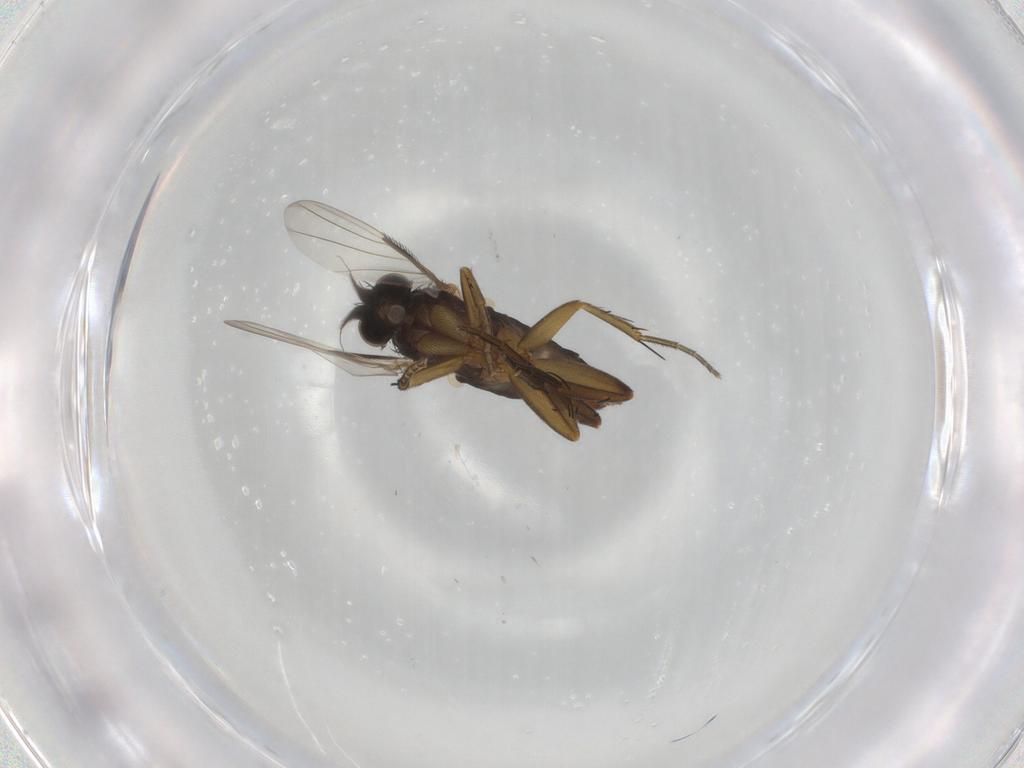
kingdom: Animalia
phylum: Arthropoda
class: Insecta
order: Diptera
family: Phoridae
